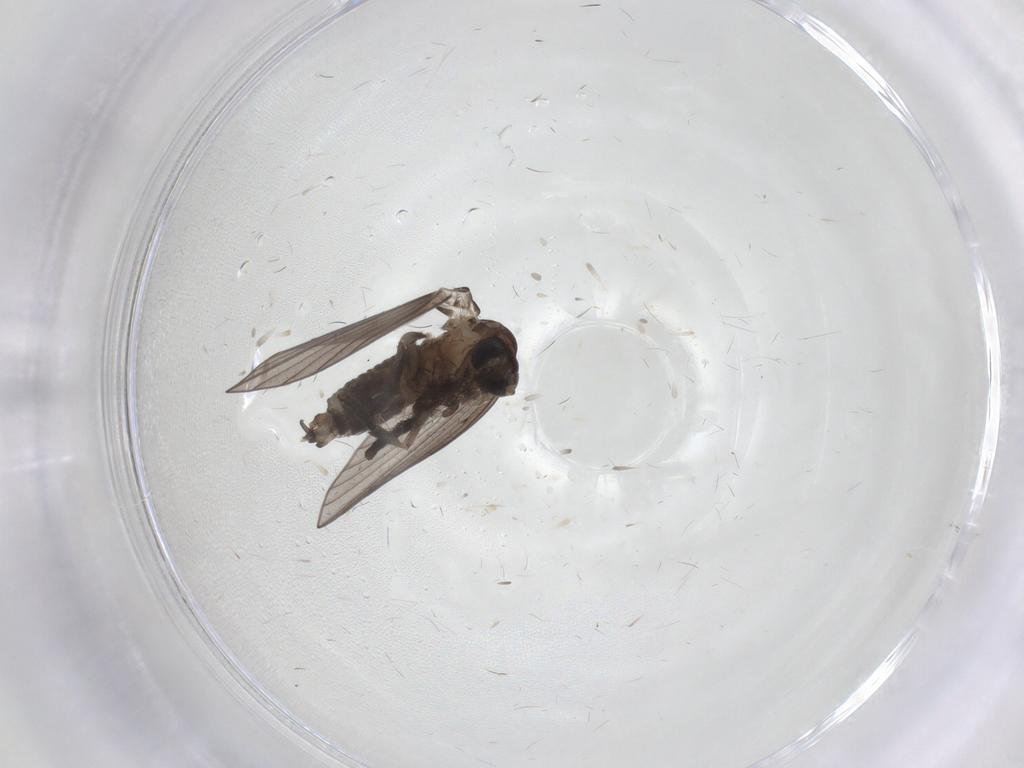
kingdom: Animalia
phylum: Arthropoda
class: Insecta
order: Diptera
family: Psychodidae
